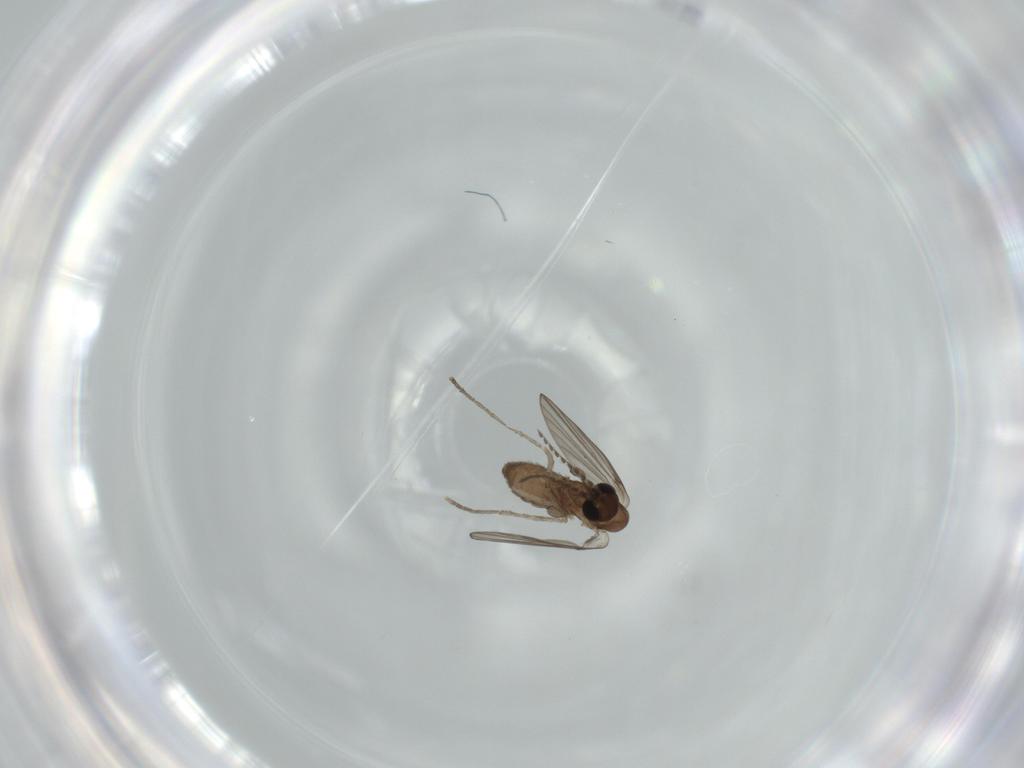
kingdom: Animalia
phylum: Arthropoda
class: Insecta
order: Diptera
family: Psychodidae
